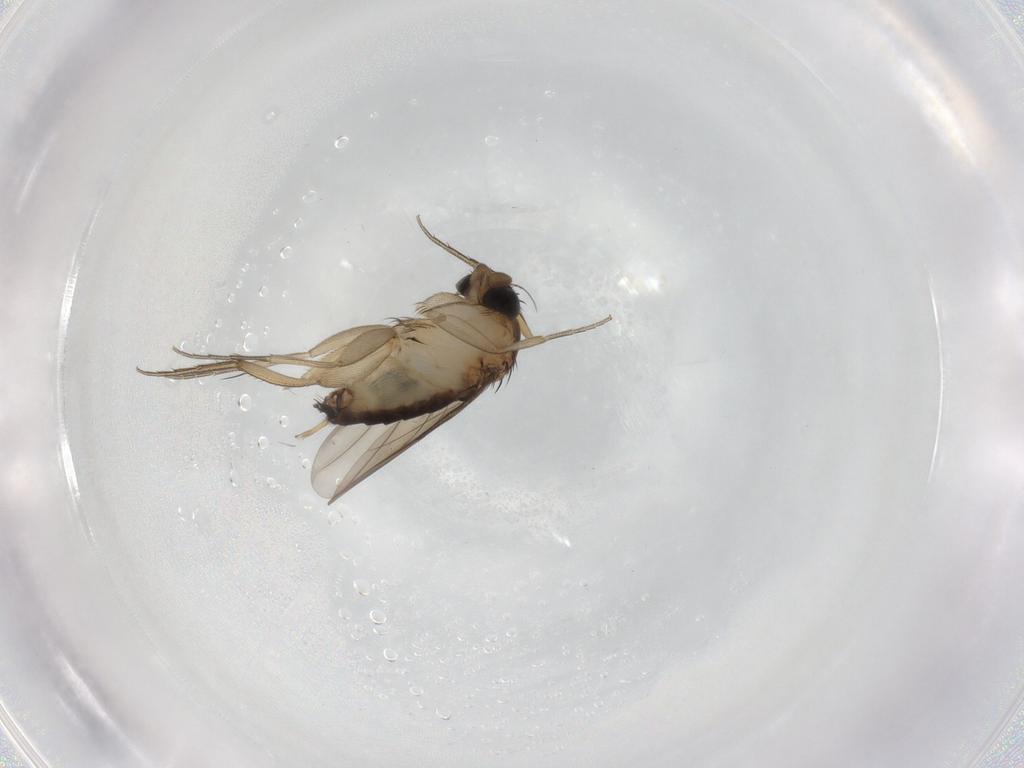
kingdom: Animalia
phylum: Arthropoda
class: Insecta
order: Diptera
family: Phoridae
